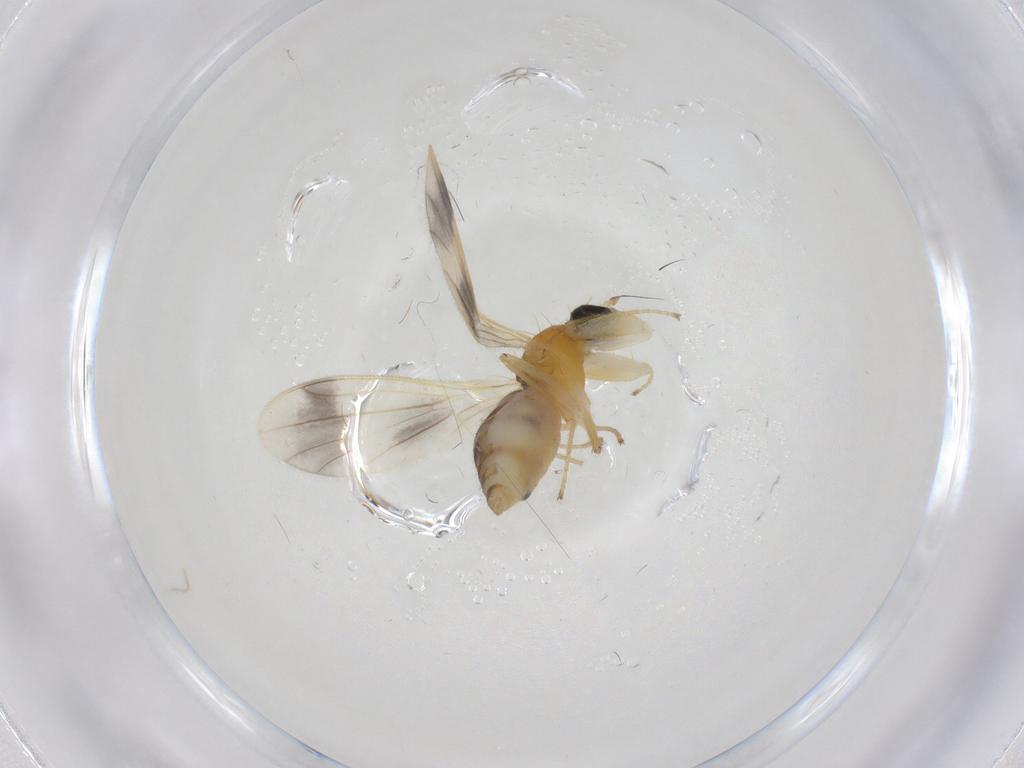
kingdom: Animalia
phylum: Arthropoda
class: Insecta
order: Diptera
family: Empididae
